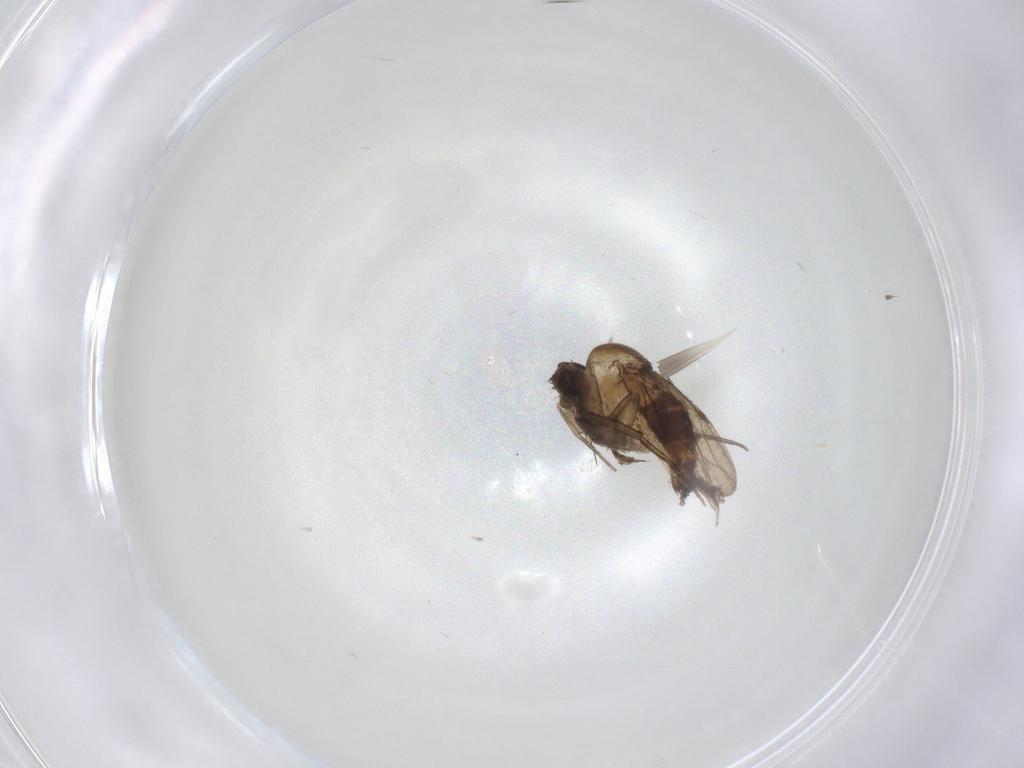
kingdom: Animalia
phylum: Arthropoda
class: Insecta
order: Diptera
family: Phoridae
